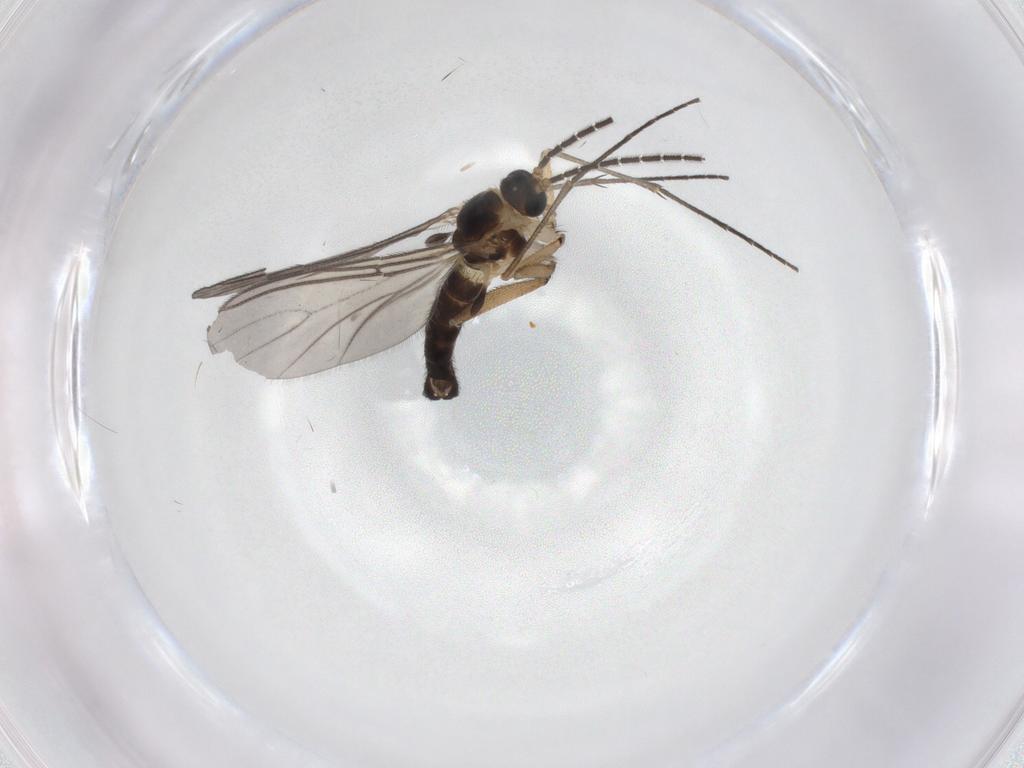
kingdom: Animalia
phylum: Arthropoda
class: Insecta
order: Diptera
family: Sciaridae
